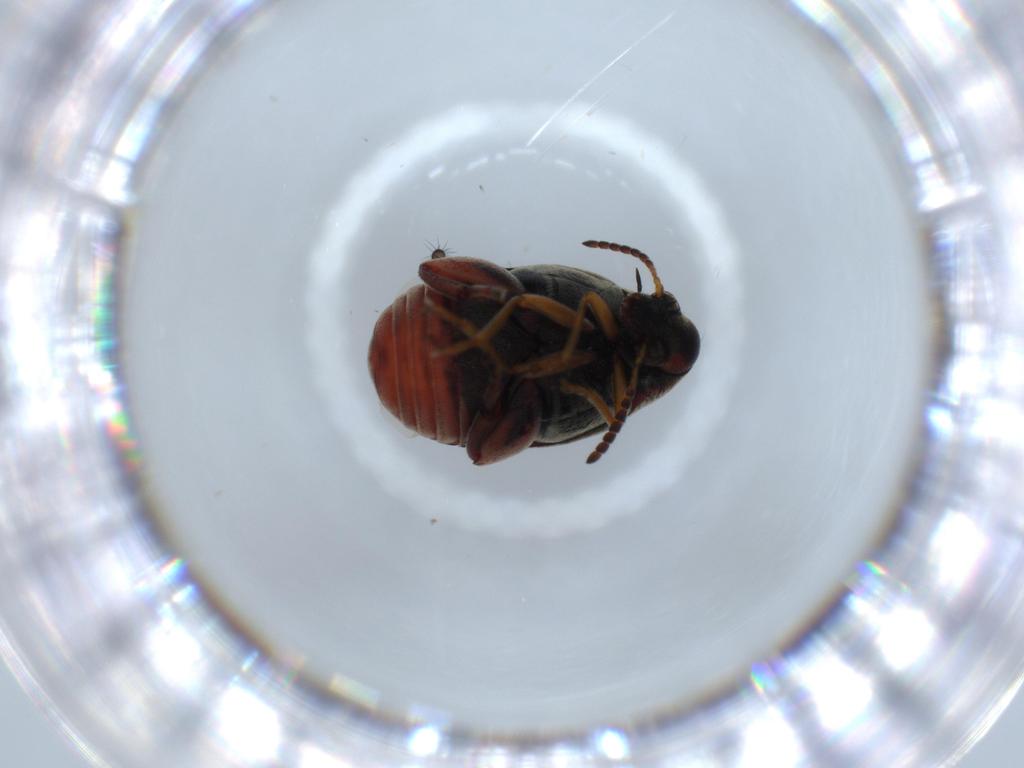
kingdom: Animalia
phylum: Arthropoda
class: Insecta
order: Coleoptera
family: Chrysomelidae
